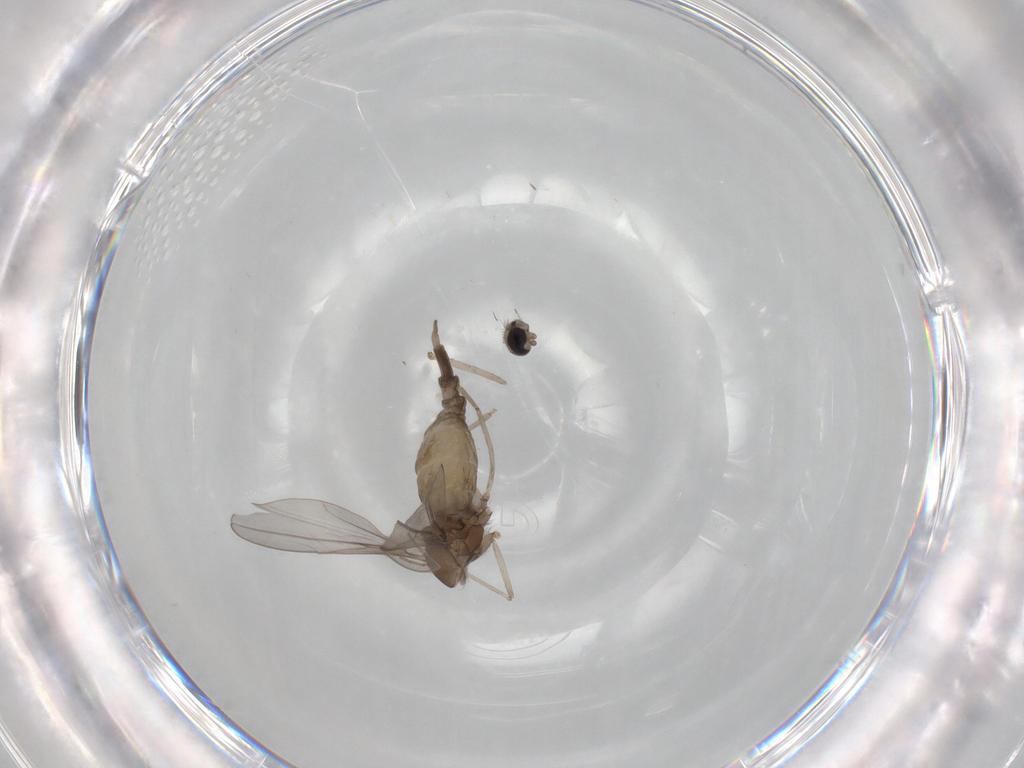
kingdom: Animalia
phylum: Arthropoda
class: Insecta
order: Diptera
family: Cecidomyiidae
